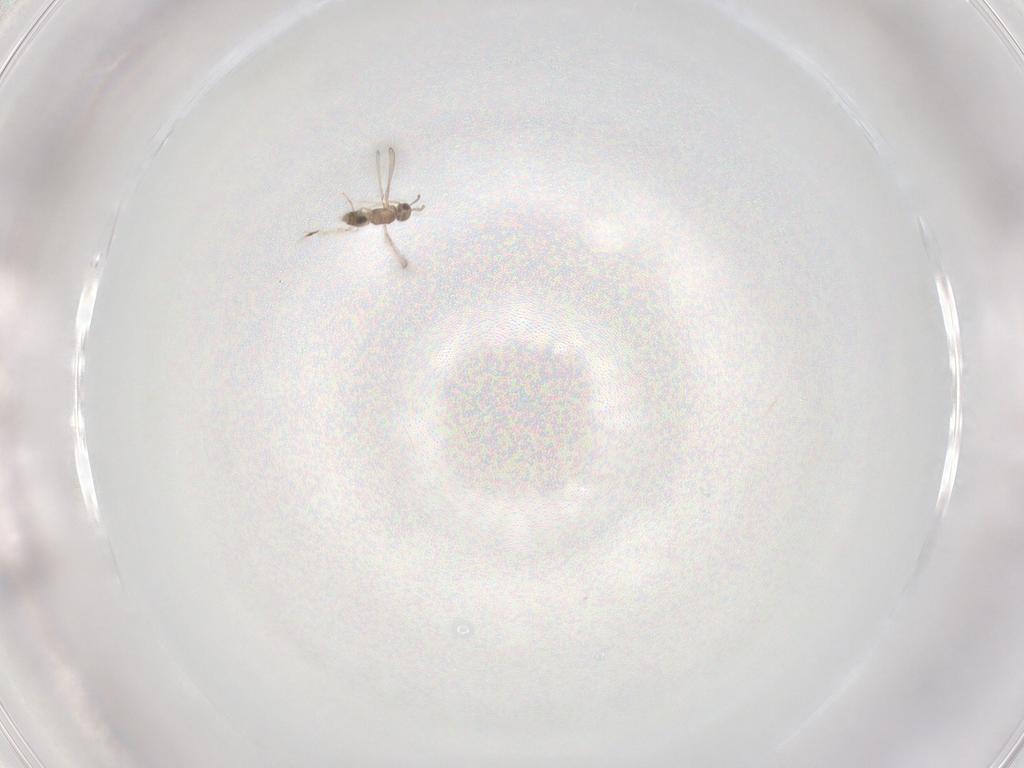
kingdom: Animalia
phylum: Arthropoda
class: Insecta
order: Hymenoptera
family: Mymaridae
